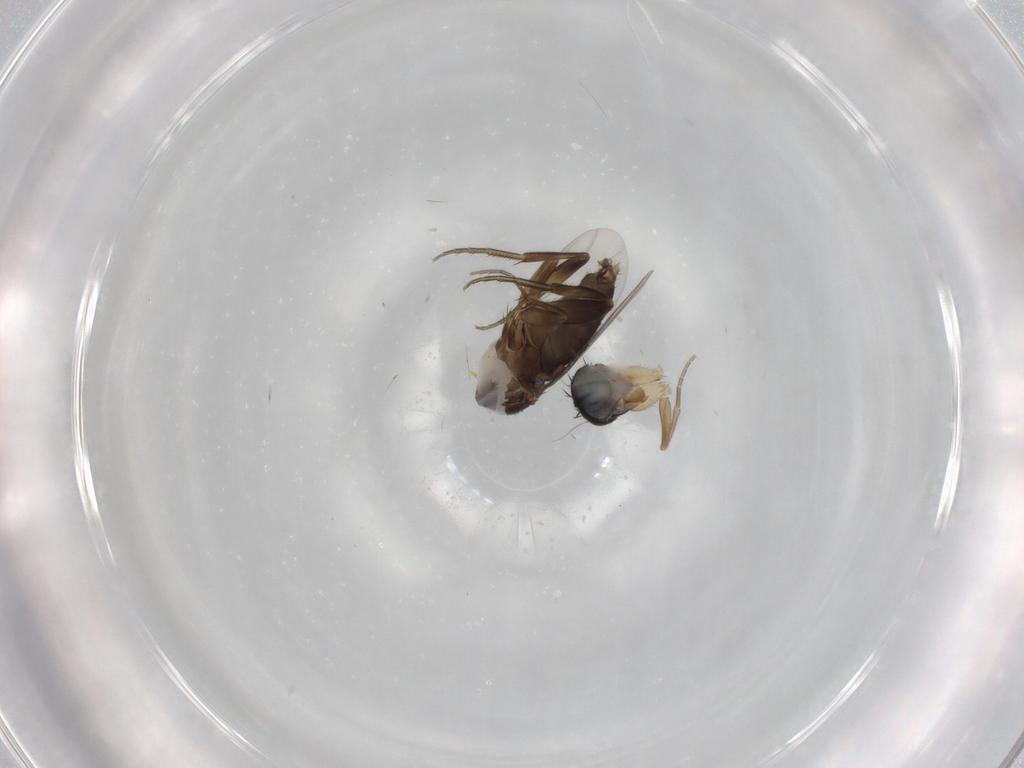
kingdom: Animalia
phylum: Arthropoda
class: Insecta
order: Diptera
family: Phoridae
